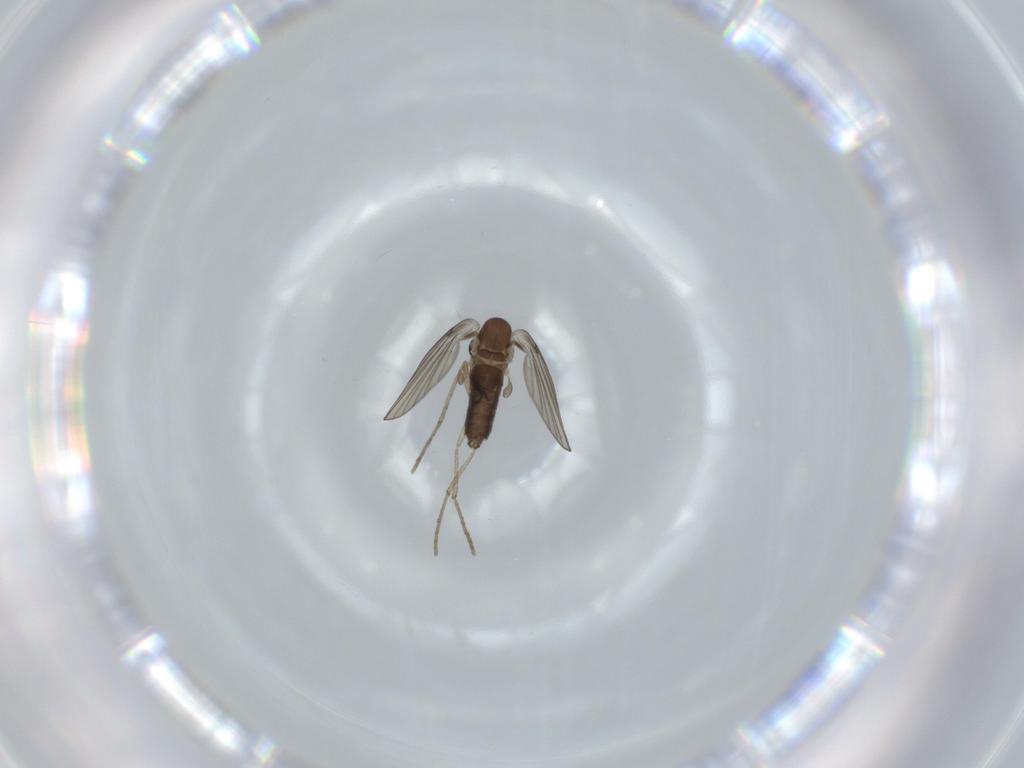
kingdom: Animalia
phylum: Arthropoda
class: Insecta
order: Diptera
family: Psychodidae
